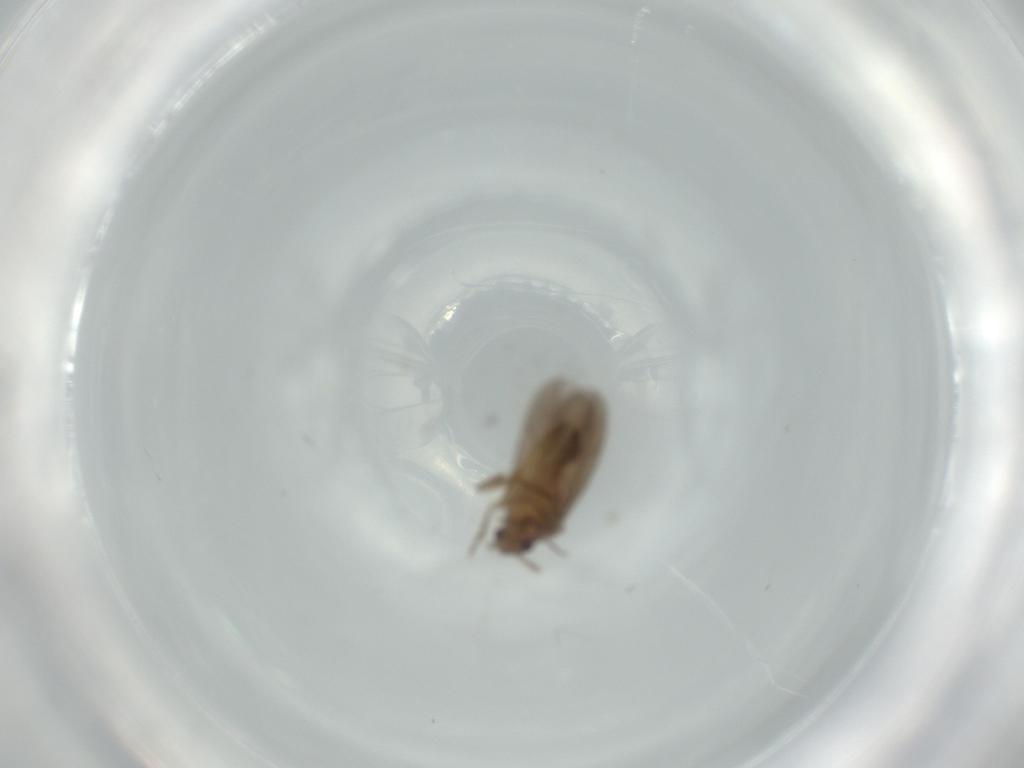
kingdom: Animalia
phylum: Arthropoda
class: Insecta
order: Hemiptera
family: Ceratocombidae
